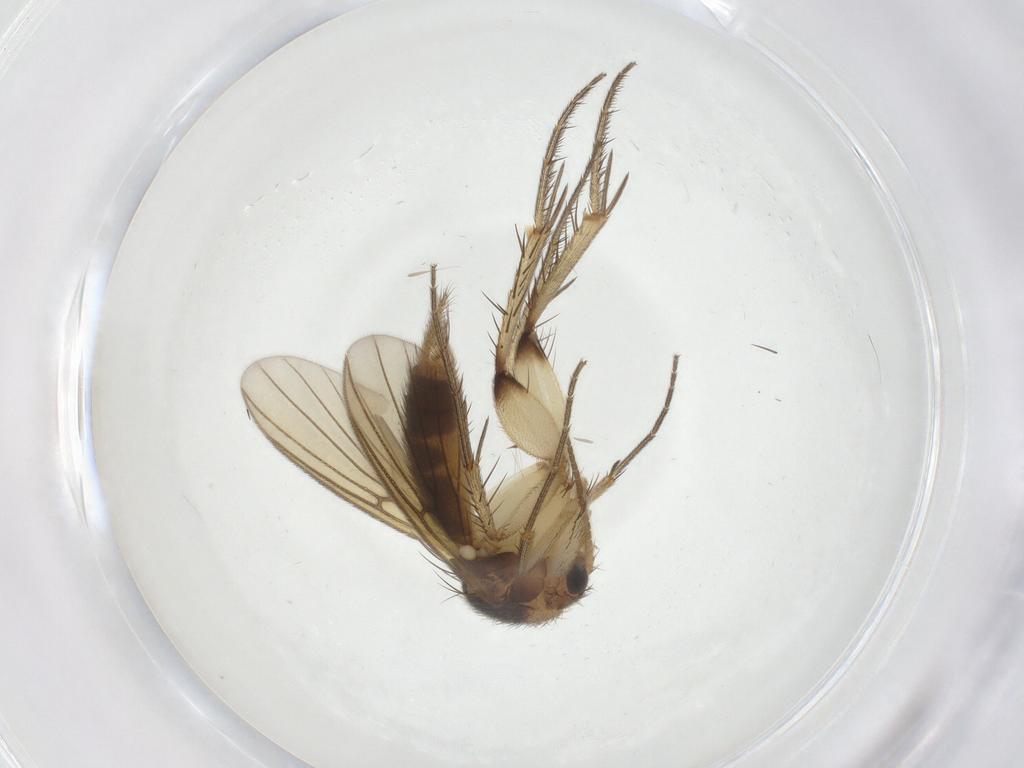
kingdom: Animalia
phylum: Arthropoda
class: Insecta
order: Diptera
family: Mycetophilidae
